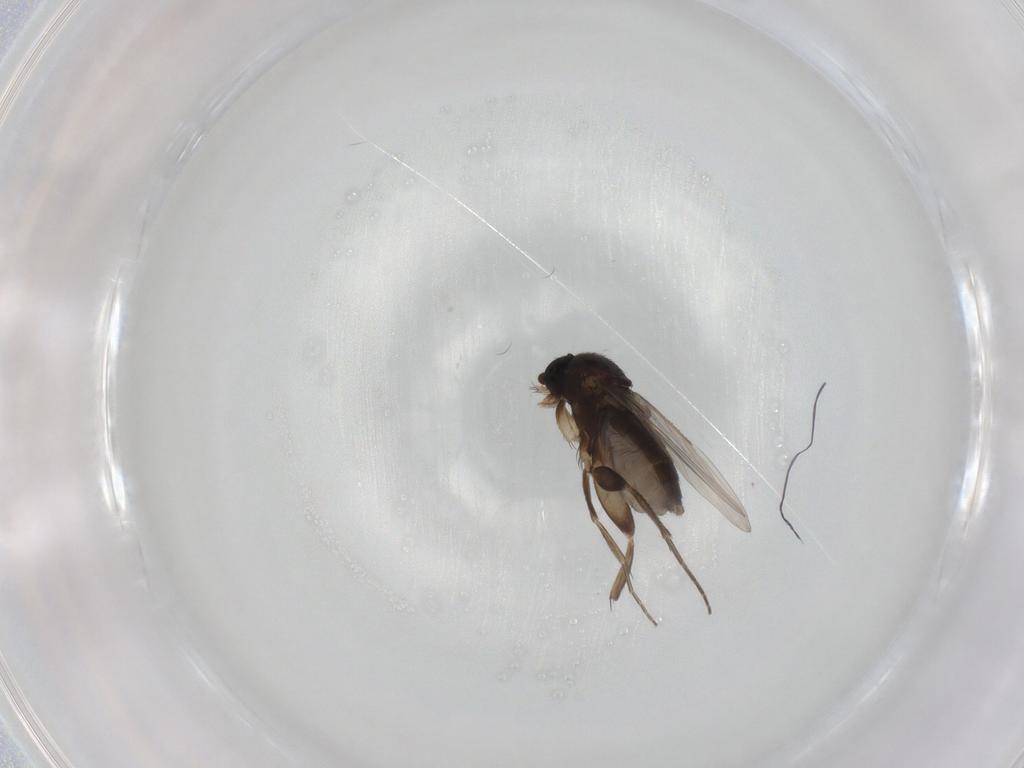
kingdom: Animalia
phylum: Arthropoda
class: Insecta
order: Diptera
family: Phoridae
